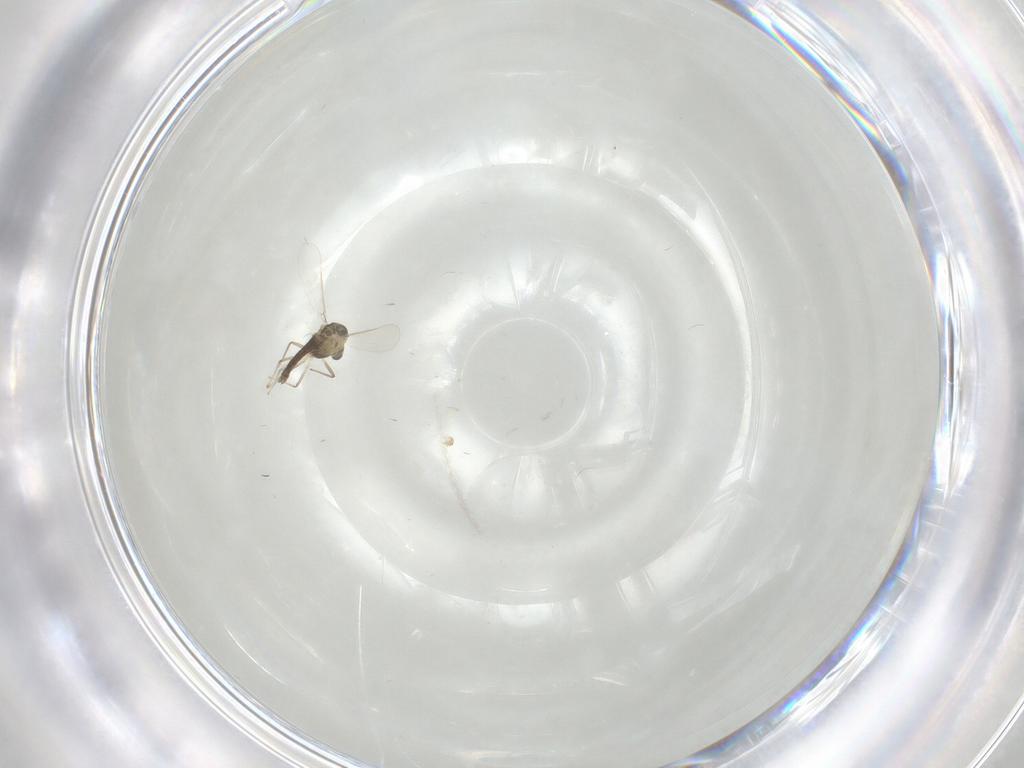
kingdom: Animalia
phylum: Arthropoda
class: Insecta
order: Diptera
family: Chironomidae
